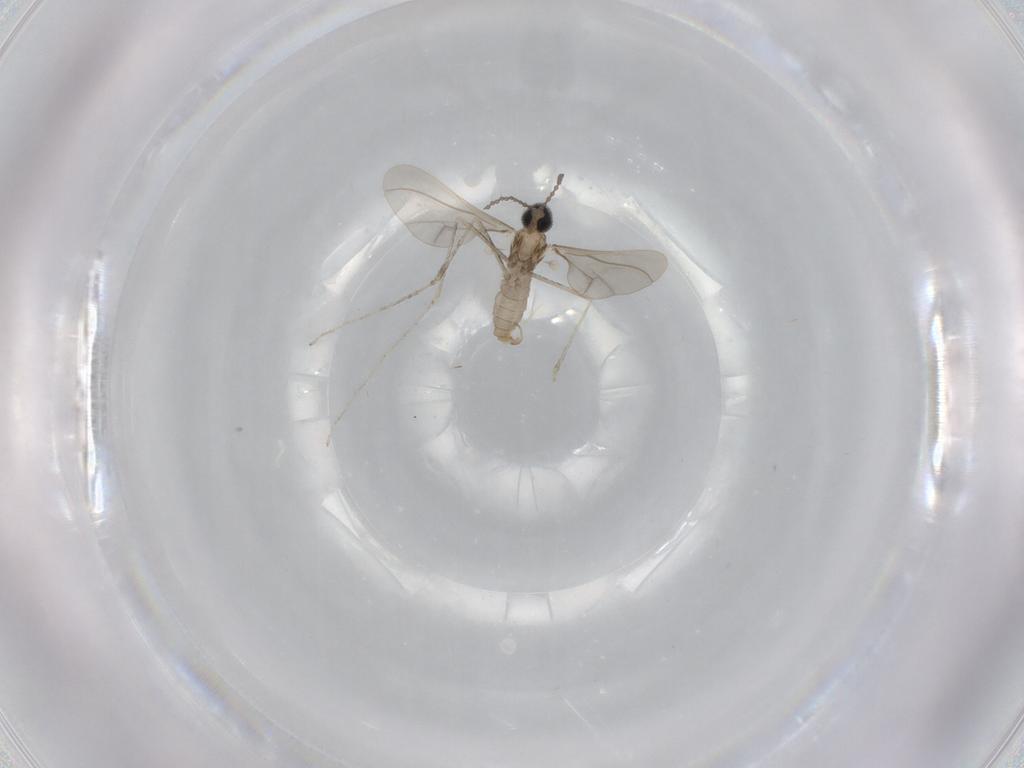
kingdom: Animalia
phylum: Arthropoda
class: Insecta
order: Diptera
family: Cecidomyiidae
